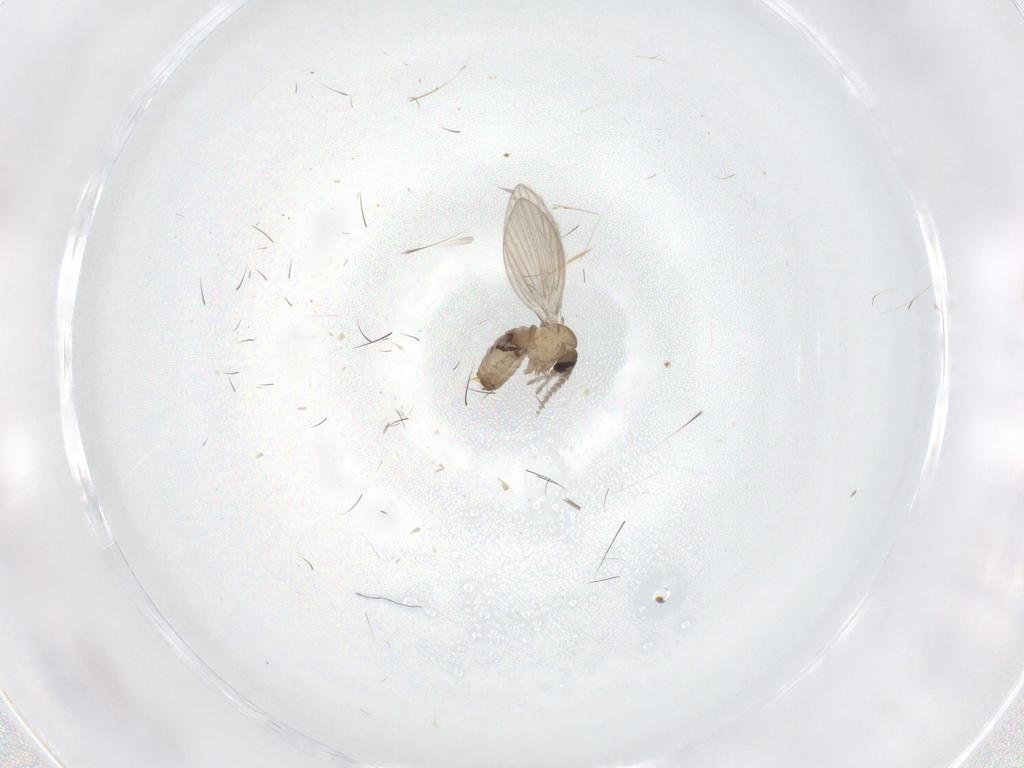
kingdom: Animalia
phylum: Arthropoda
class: Insecta
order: Diptera
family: Psychodidae
